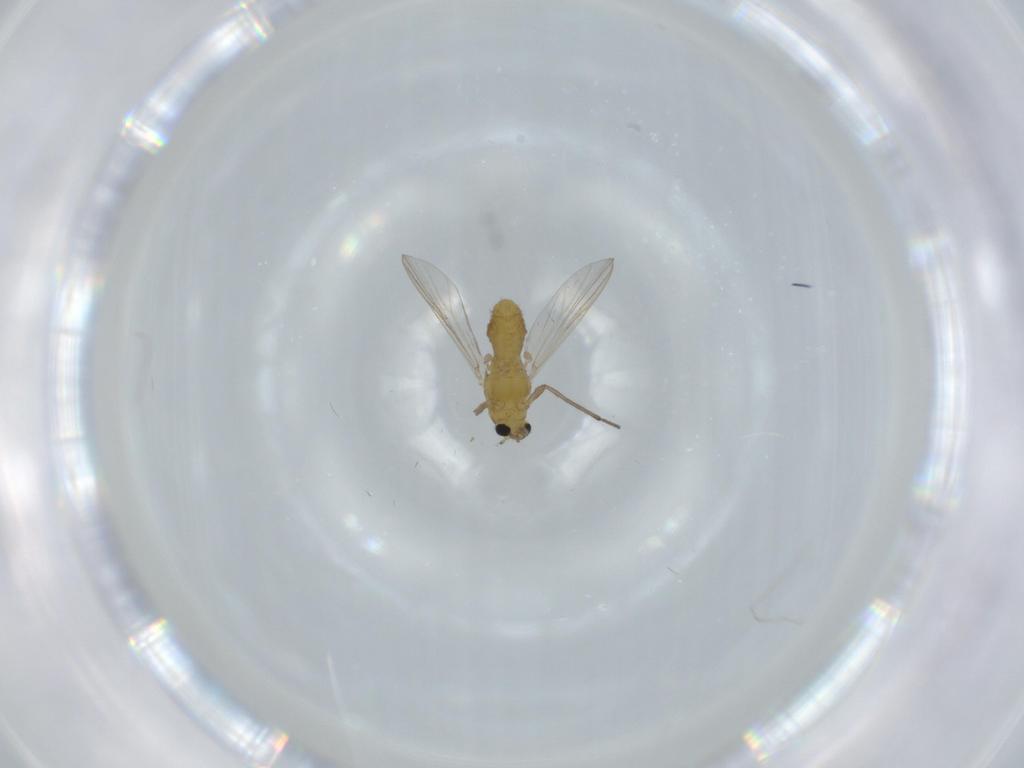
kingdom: Animalia
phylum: Arthropoda
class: Insecta
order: Diptera
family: Chironomidae
